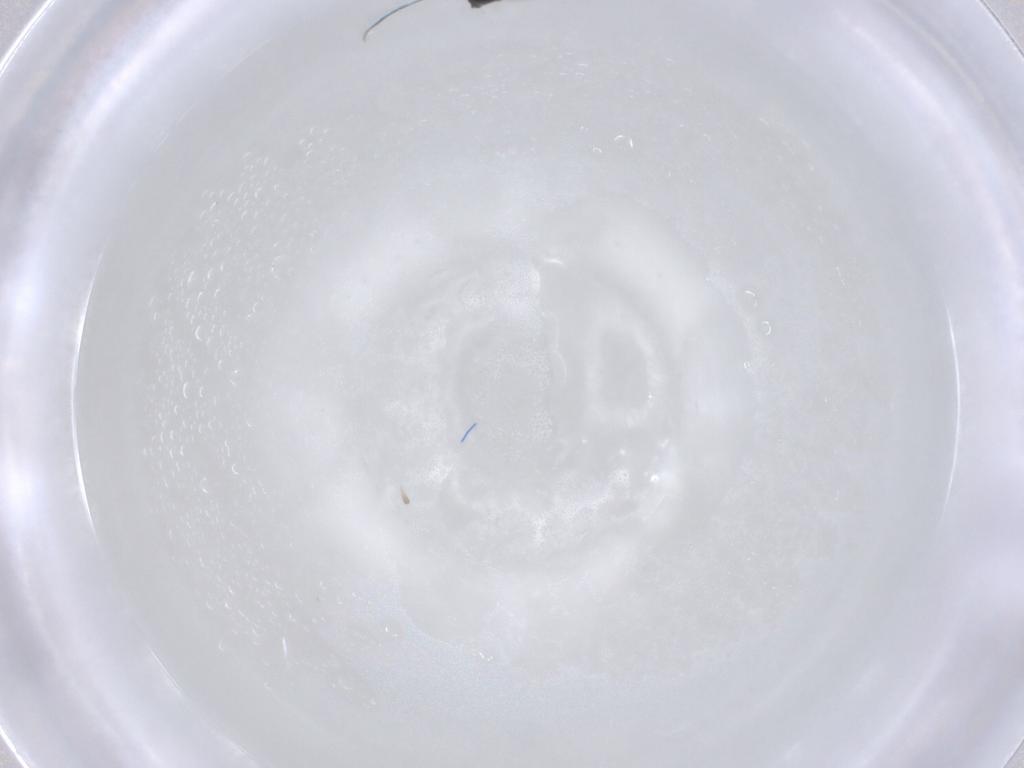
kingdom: Animalia
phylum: Arthropoda
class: Insecta
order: Diptera
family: Chironomidae
